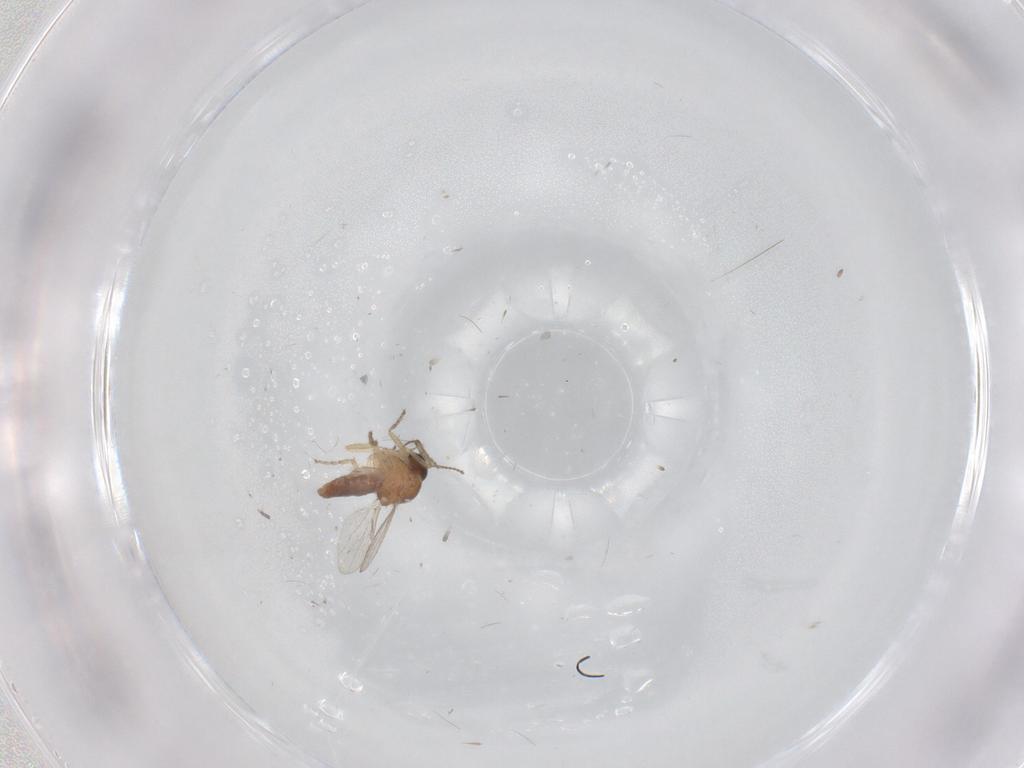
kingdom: Animalia
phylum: Arthropoda
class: Insecta
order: Diptera
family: Ceratopogonidae
